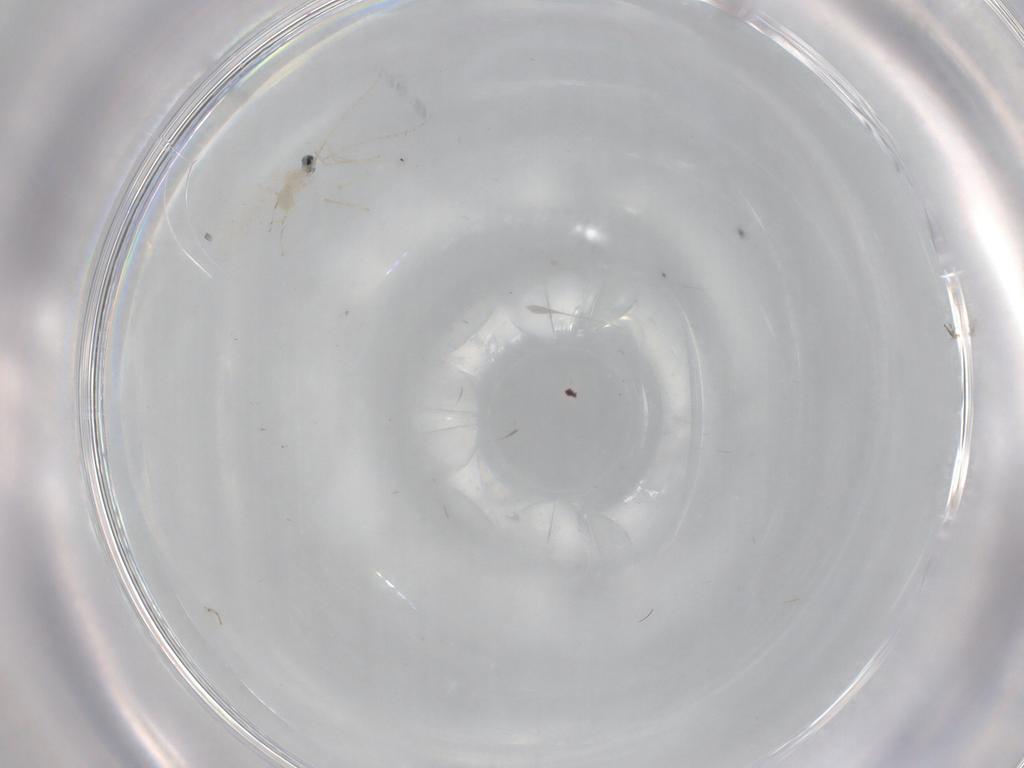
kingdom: Animalia
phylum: Arthropoda
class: Insecta
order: Diptera
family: Cecidomyiidae
